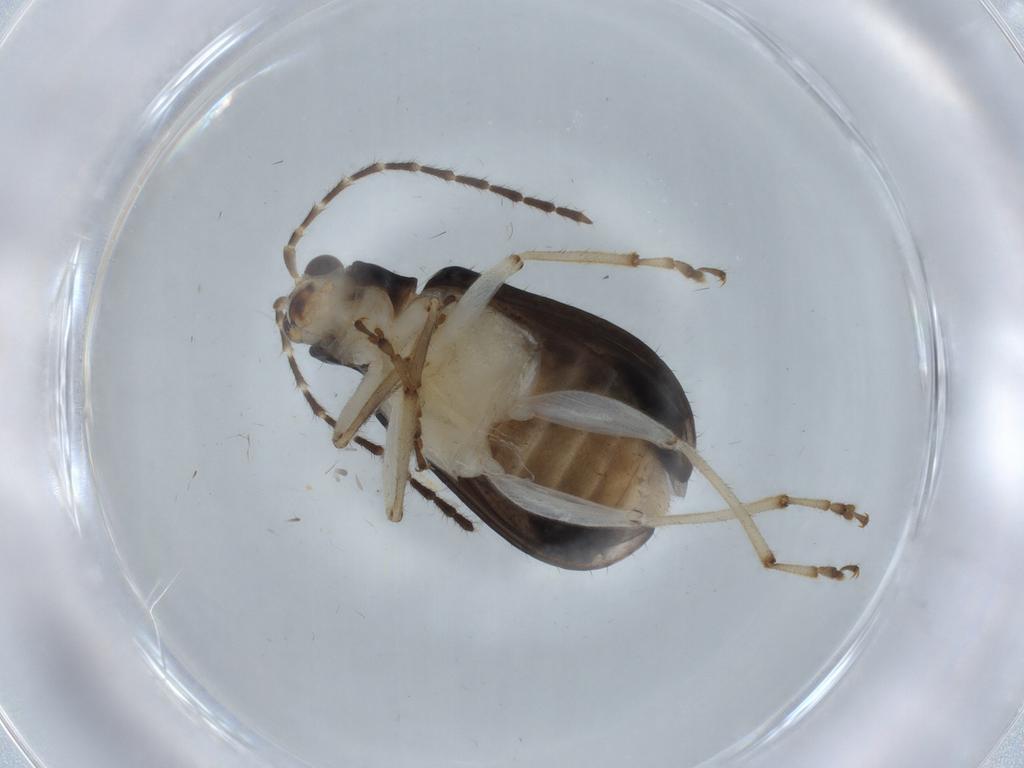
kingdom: Animalia
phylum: Arthropoda
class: Insecta
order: Coleoptera
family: Chrysomelidae
